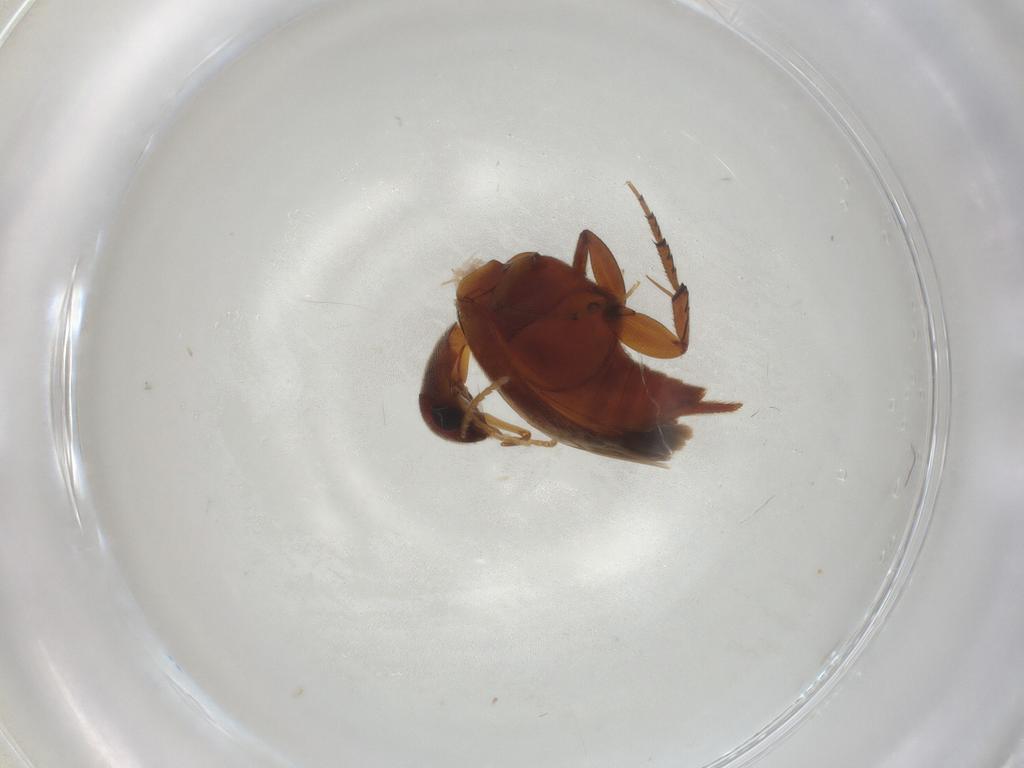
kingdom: Animalia
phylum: Arthropoda
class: Insecta
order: Coleoptera
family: Mordellidae
